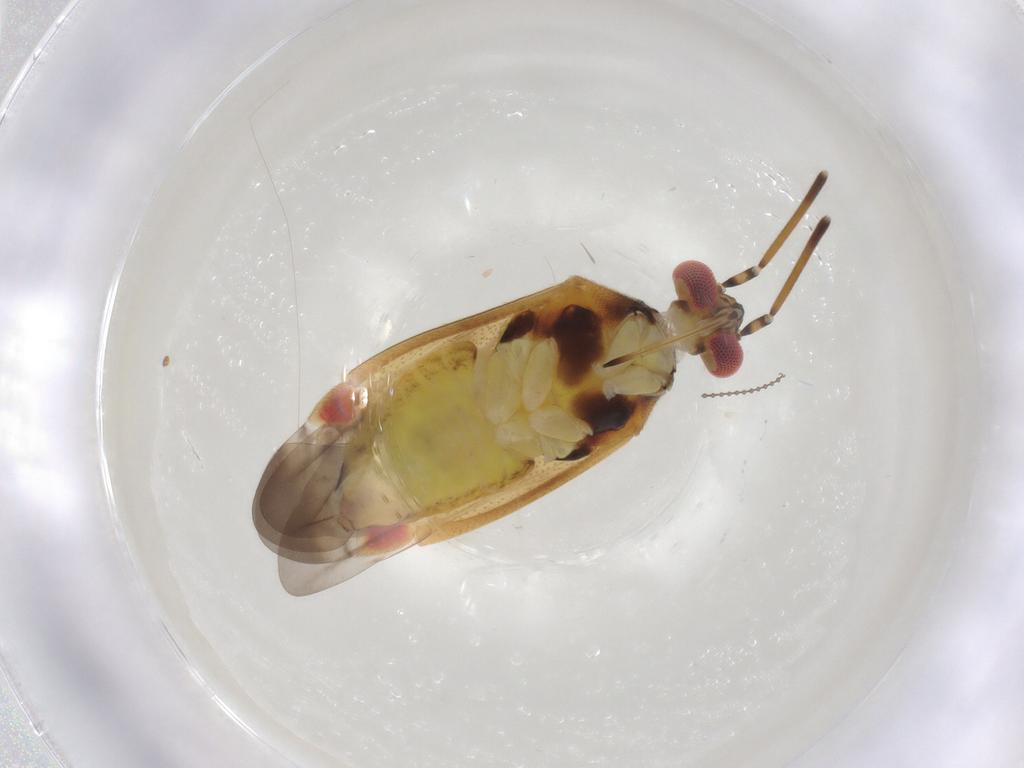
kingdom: Animalia
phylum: Arthropoda
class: Insecta
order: Hemiptera
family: Miridae
